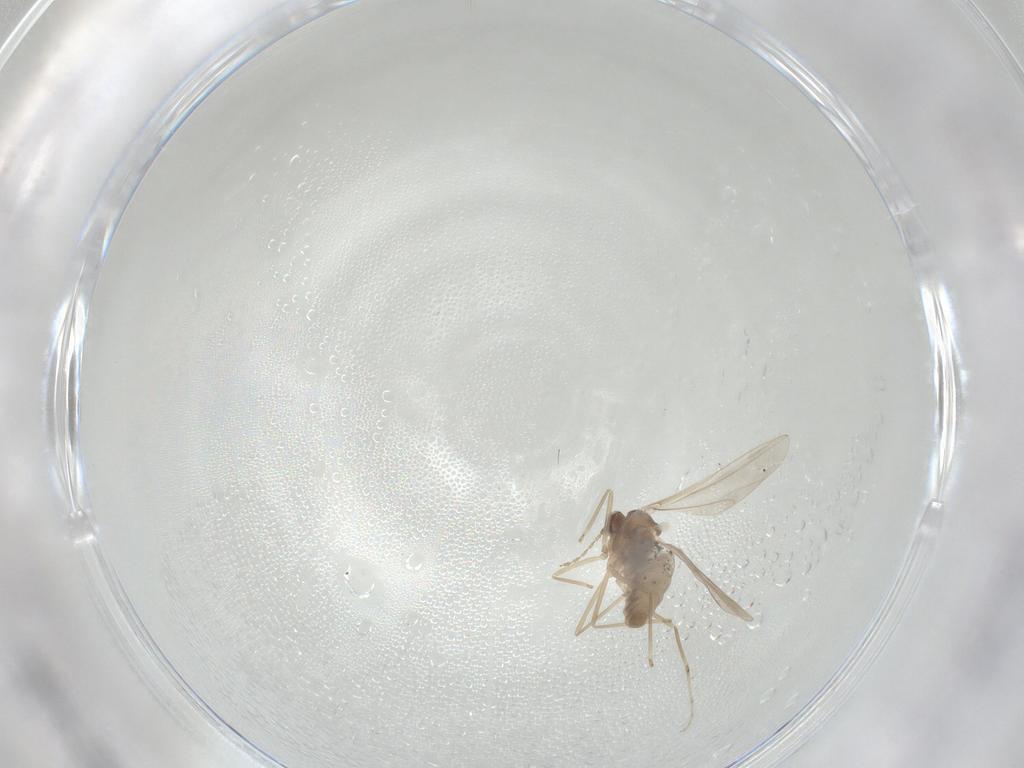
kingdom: Animalia
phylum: Arthropoda
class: Insecta
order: Diptera
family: Cecidomyiidae
